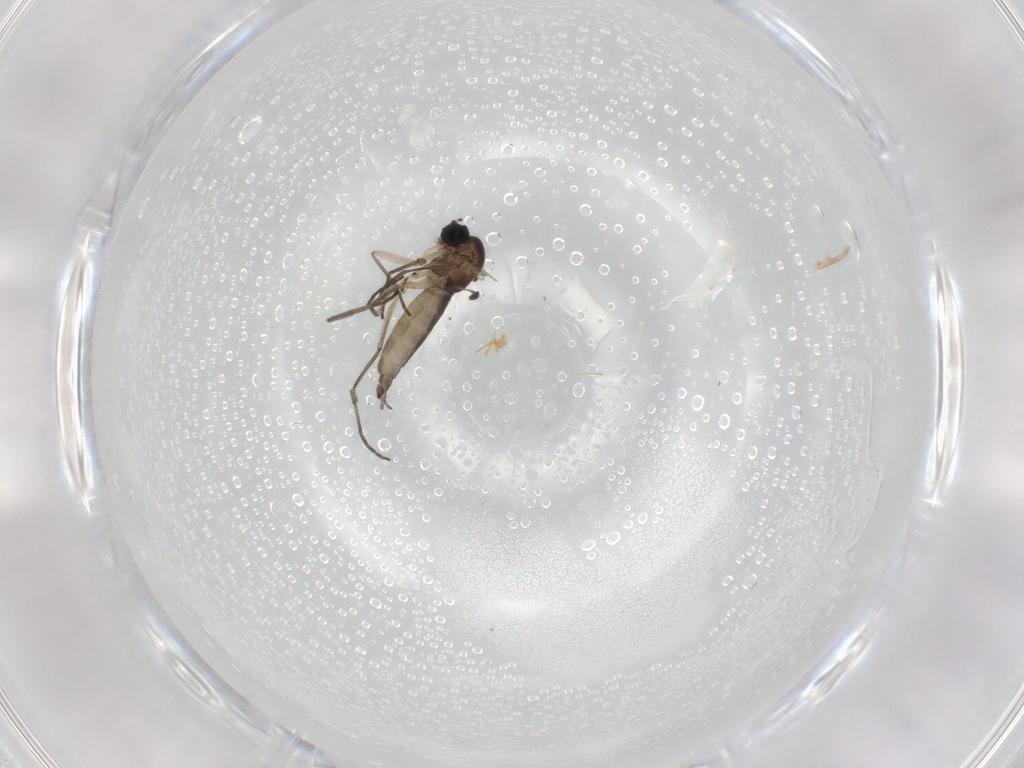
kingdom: Animalia
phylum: Arthropoda
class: Insecta
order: Diptera
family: Sciaridae
